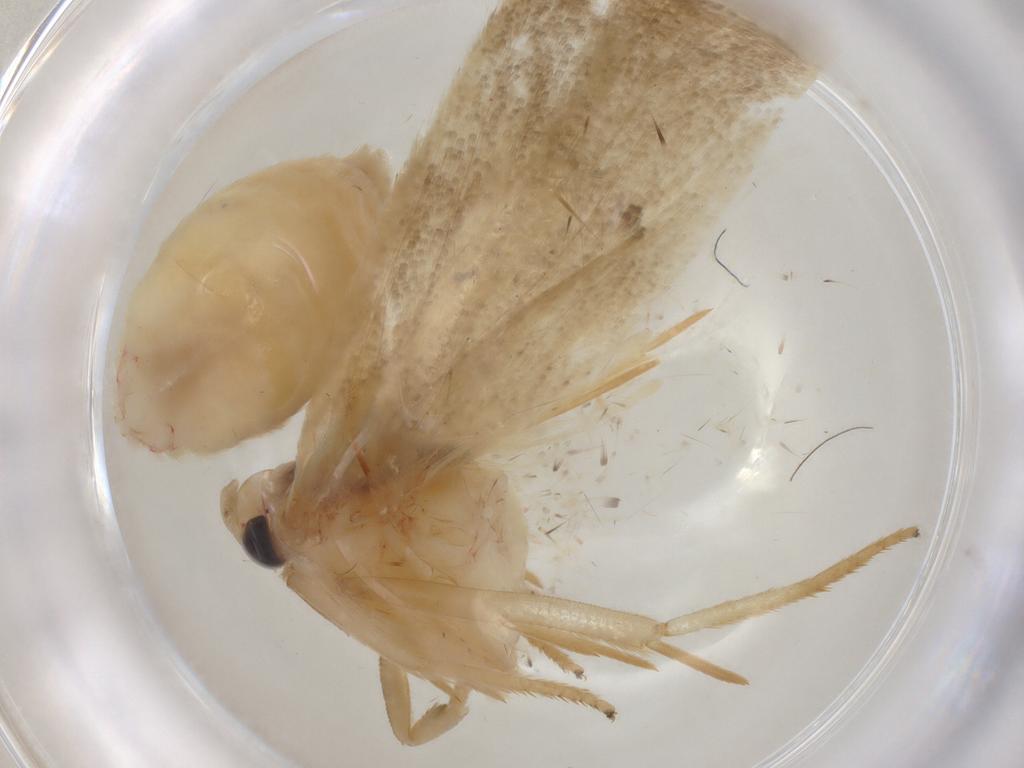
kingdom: Animalia
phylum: Arthropoda
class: Insecta
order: Lepidoptera
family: Depressariidae
